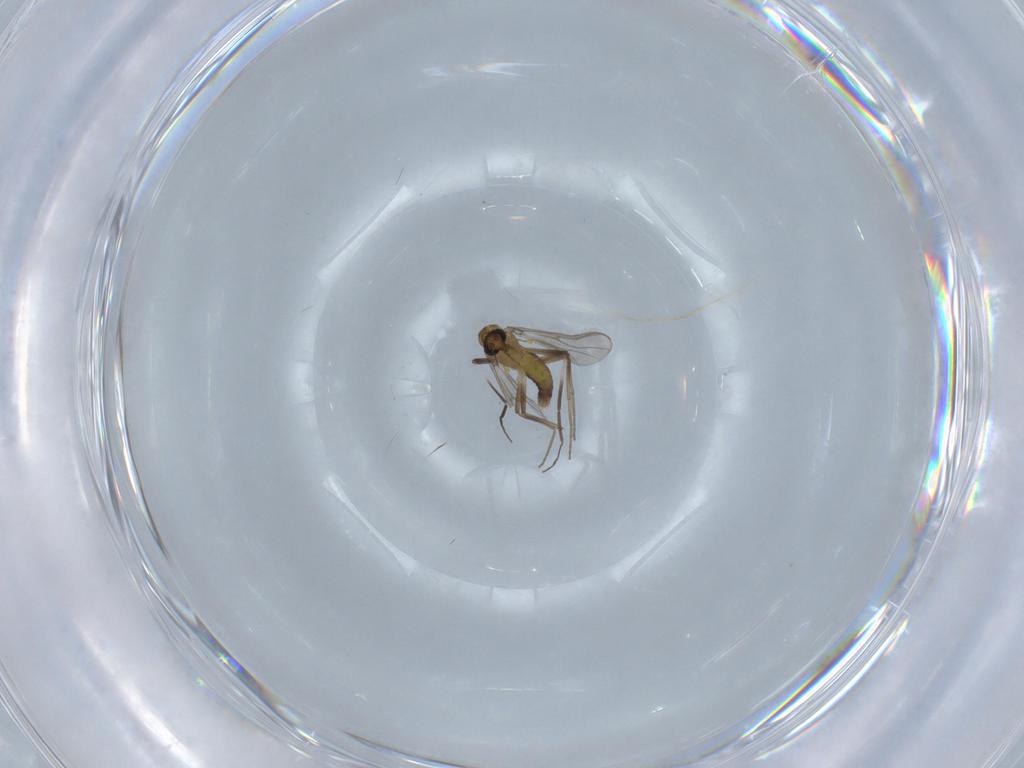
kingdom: Animalia
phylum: Arthropoda
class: Insecta
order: Diptera
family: Chironomidae
